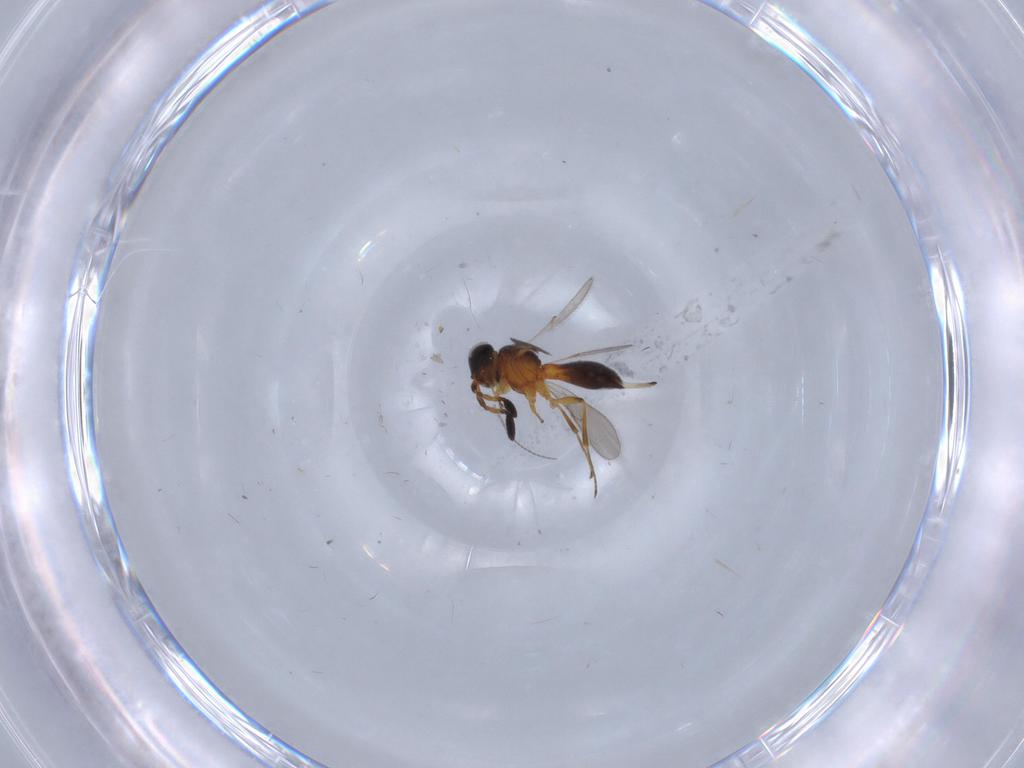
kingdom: Animalia
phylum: Arthropoda
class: Insecta
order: Hymenoptera
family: Scelionidae
